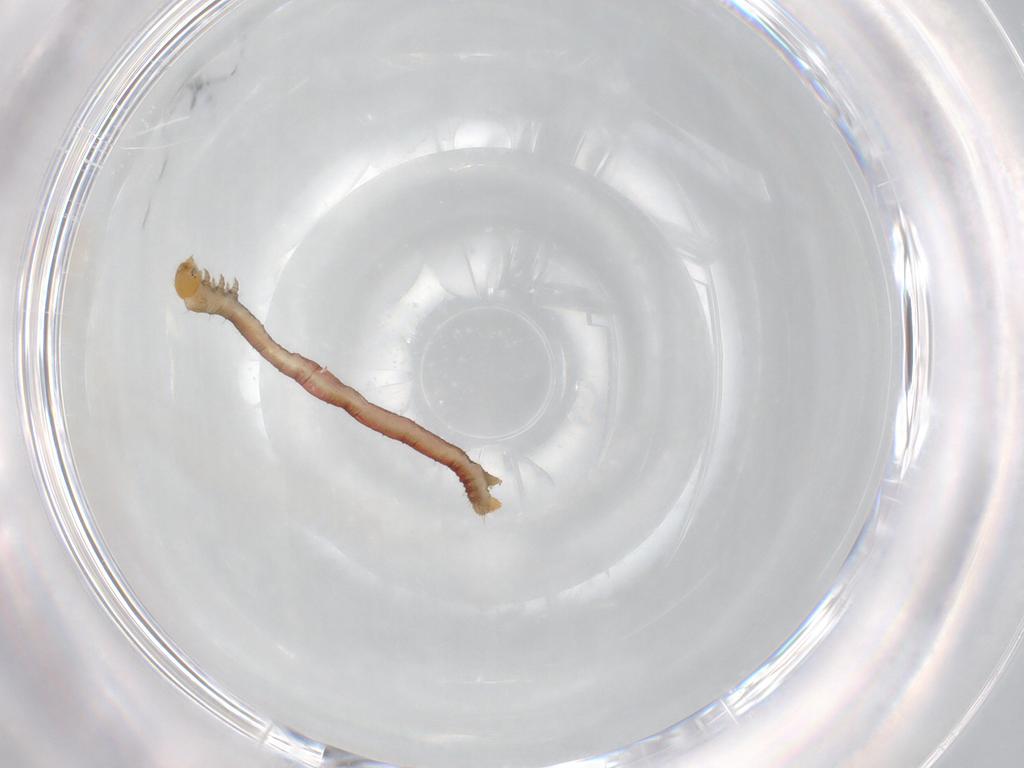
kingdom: Animalia
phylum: Arthropoda
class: Insecta
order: Lepidoptera
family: Geometridae
